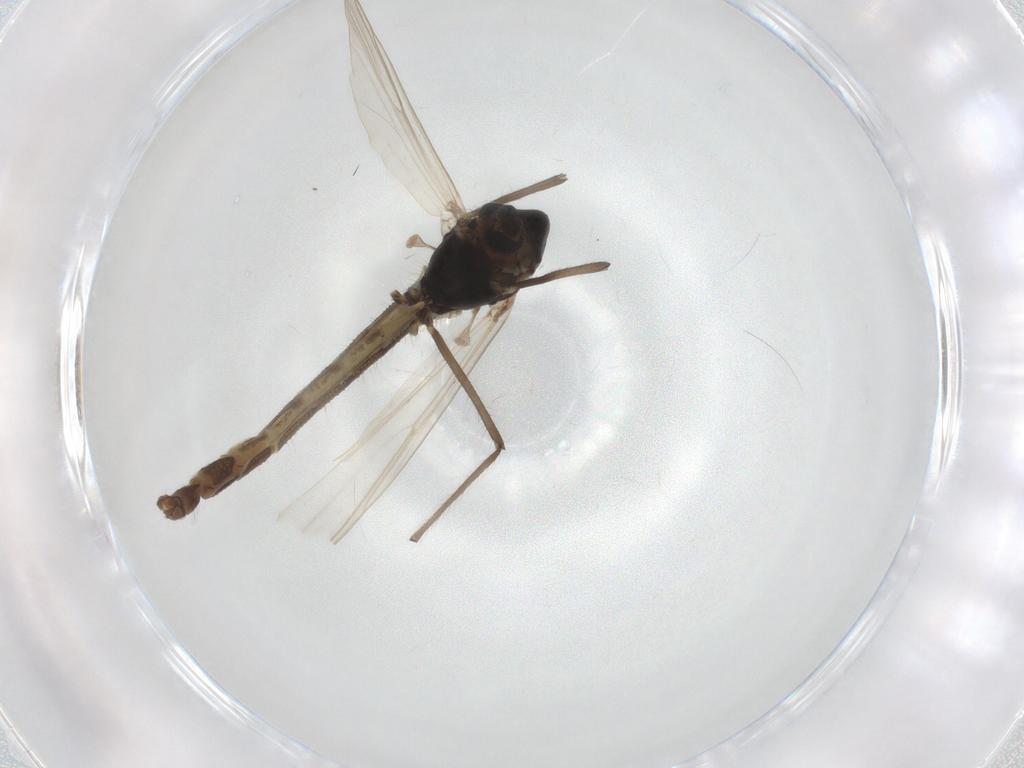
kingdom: Animalia
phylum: Arthropoda
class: Insecta
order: Diptera
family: Chironomidae
